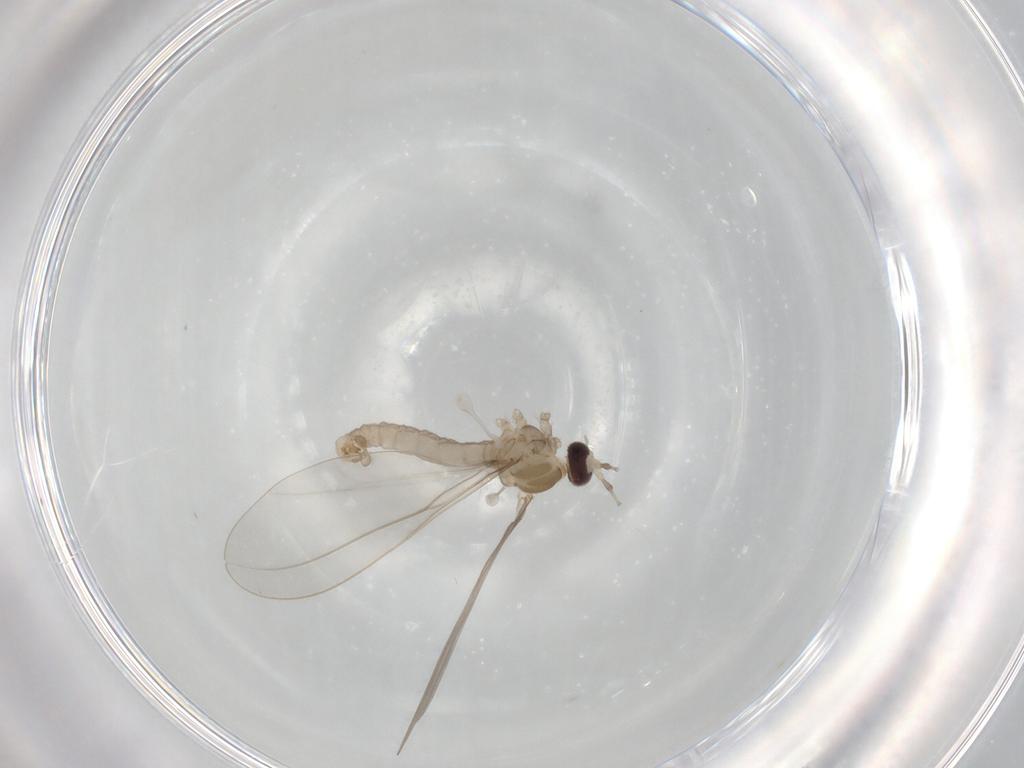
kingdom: Animalia
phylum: Arthropoda
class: Insecta
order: Diptera
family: Cecidomyiidae
